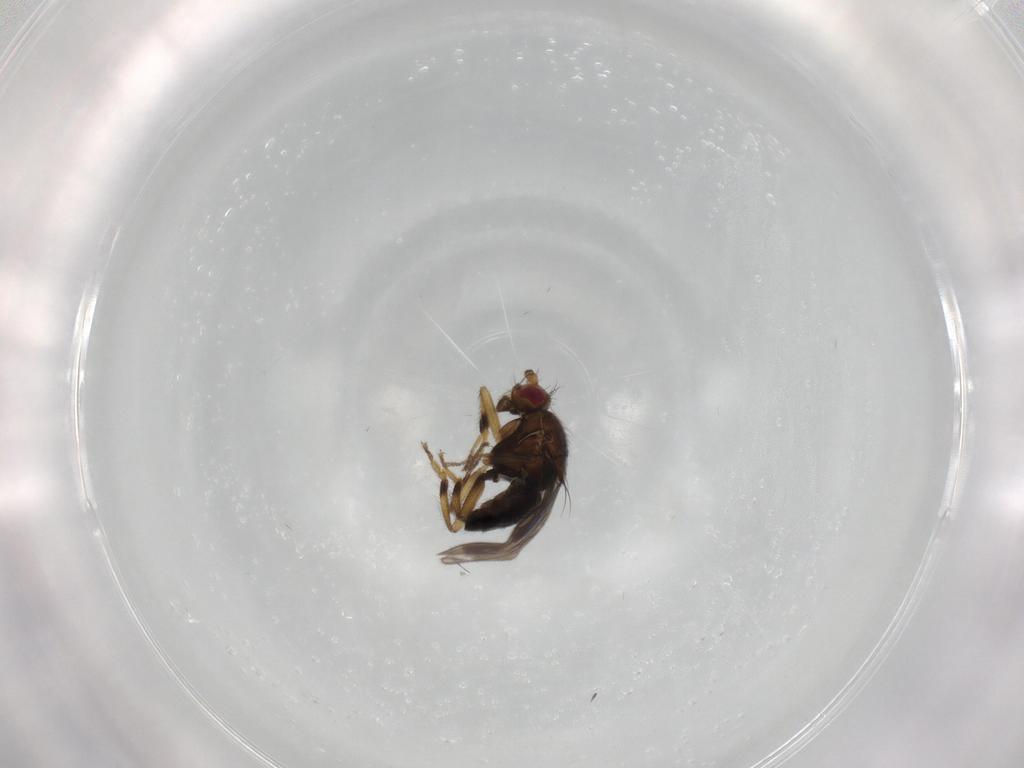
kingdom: Animalia
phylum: Arthropoda
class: Insecta
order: Diptera
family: Sphaeroceridae
